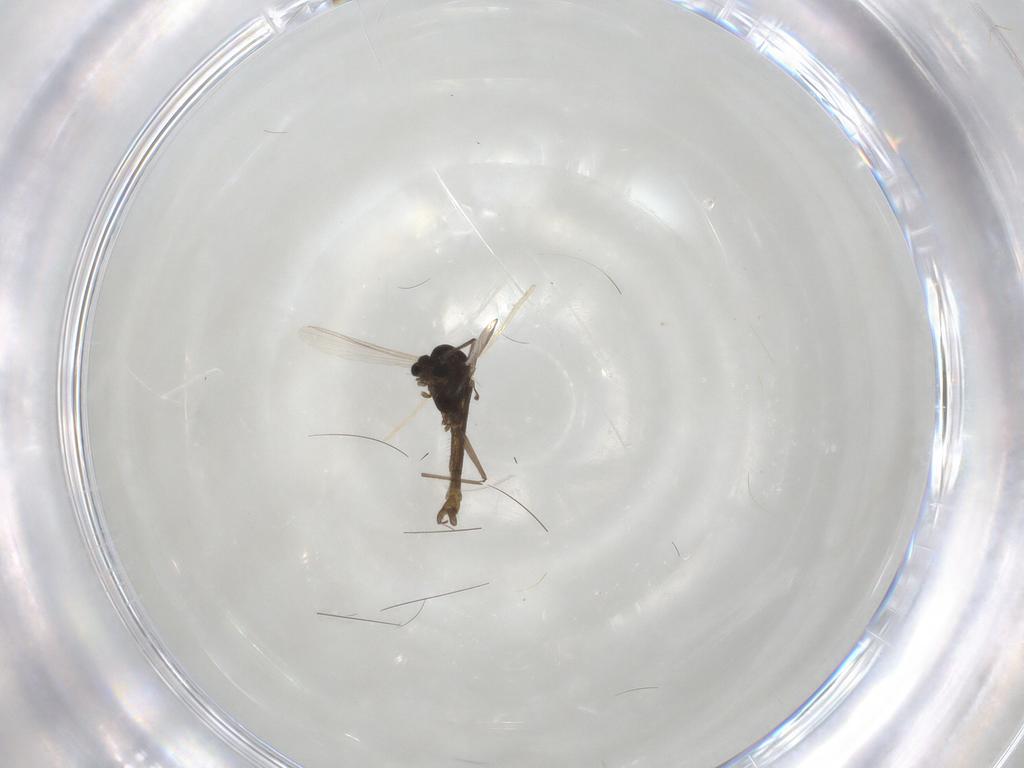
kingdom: Animalia
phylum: Arthropoda
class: Insecta
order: Diptera
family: Chironomidae
